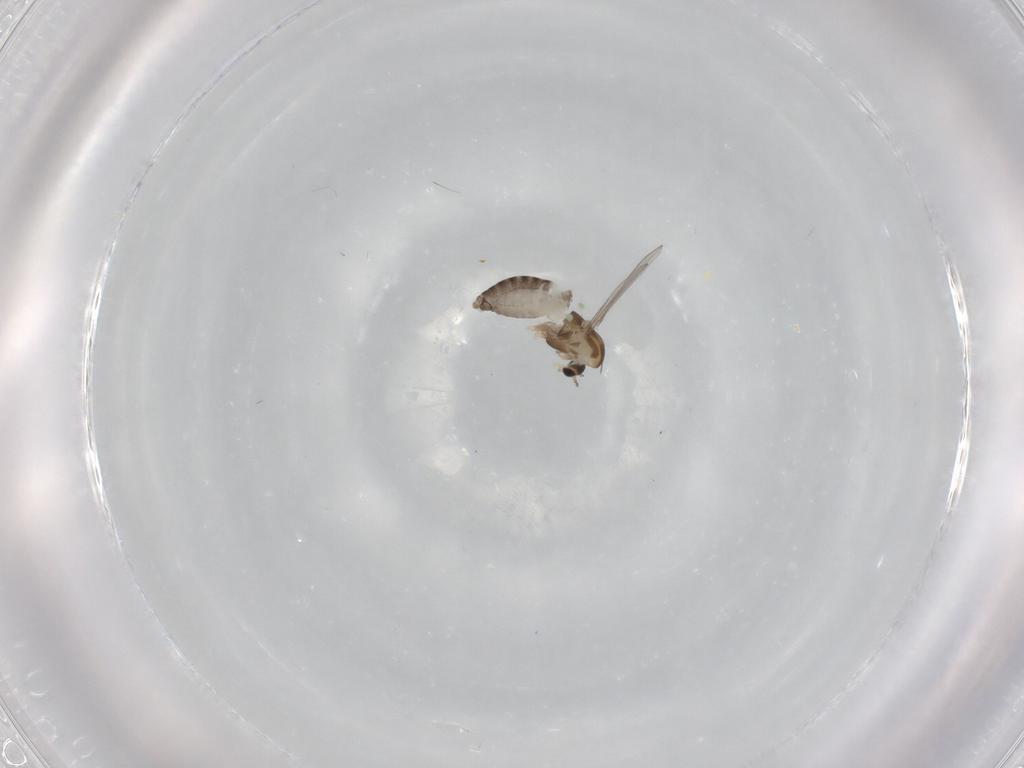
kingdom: Animalia
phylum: Arthropoda
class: Insecta
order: Diptera
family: Chironomidae
